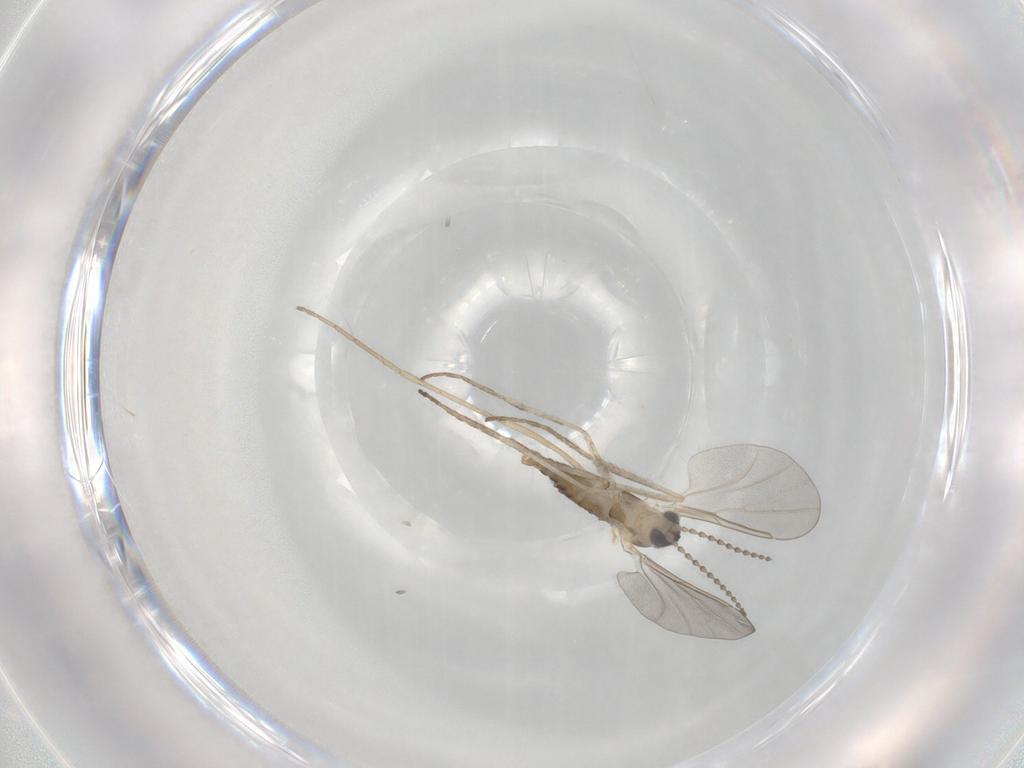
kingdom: Animalia
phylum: Arthropoda
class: Insecta
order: Diptera
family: Cecidomyiidae
